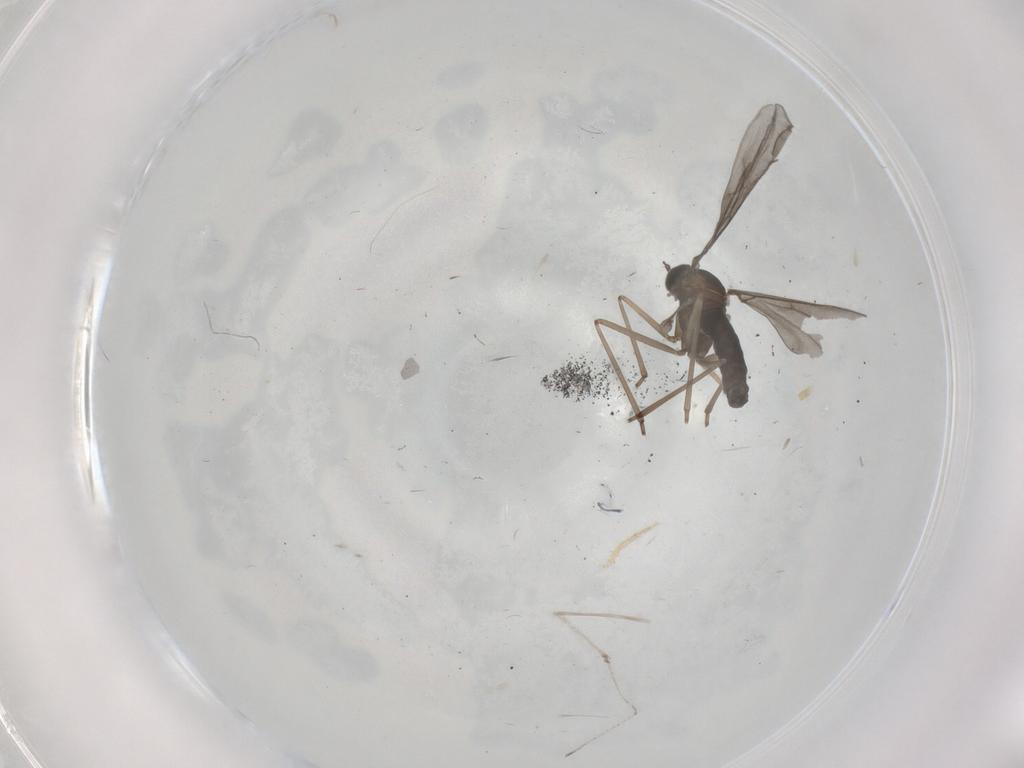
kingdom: Animalia
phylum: Arthropoda
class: Insecta
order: Diptera
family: Cecidomyiidae
